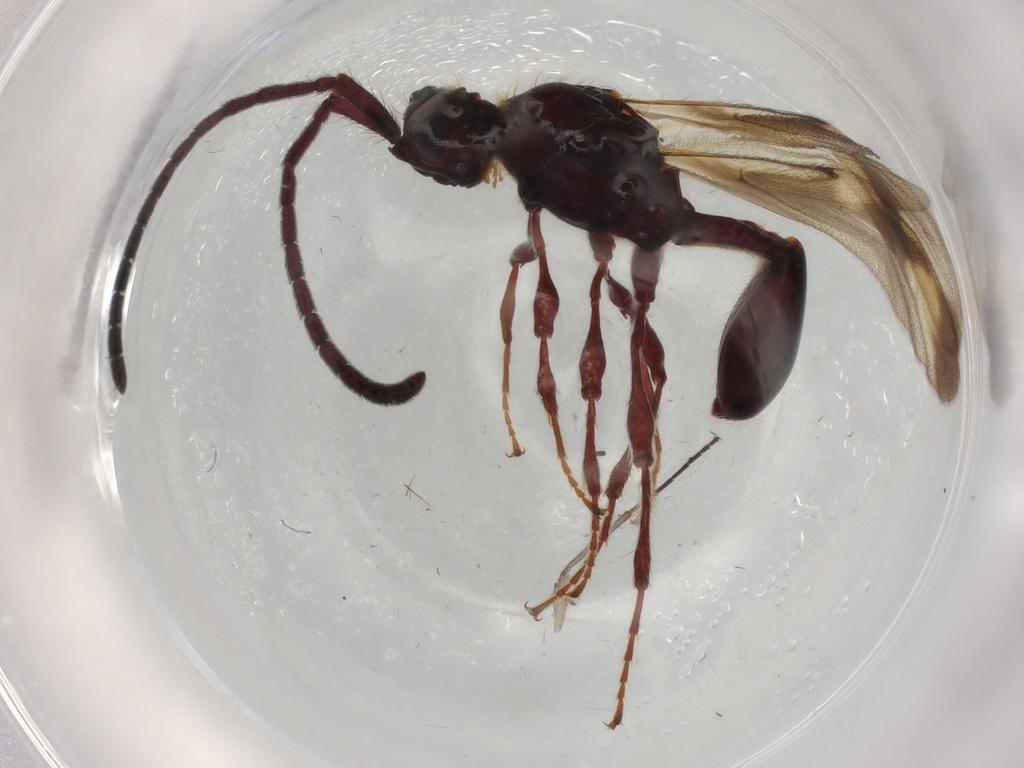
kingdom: Animalia
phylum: Arthropoda
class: Insecta
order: Hymenoptera
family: Diapriidae
